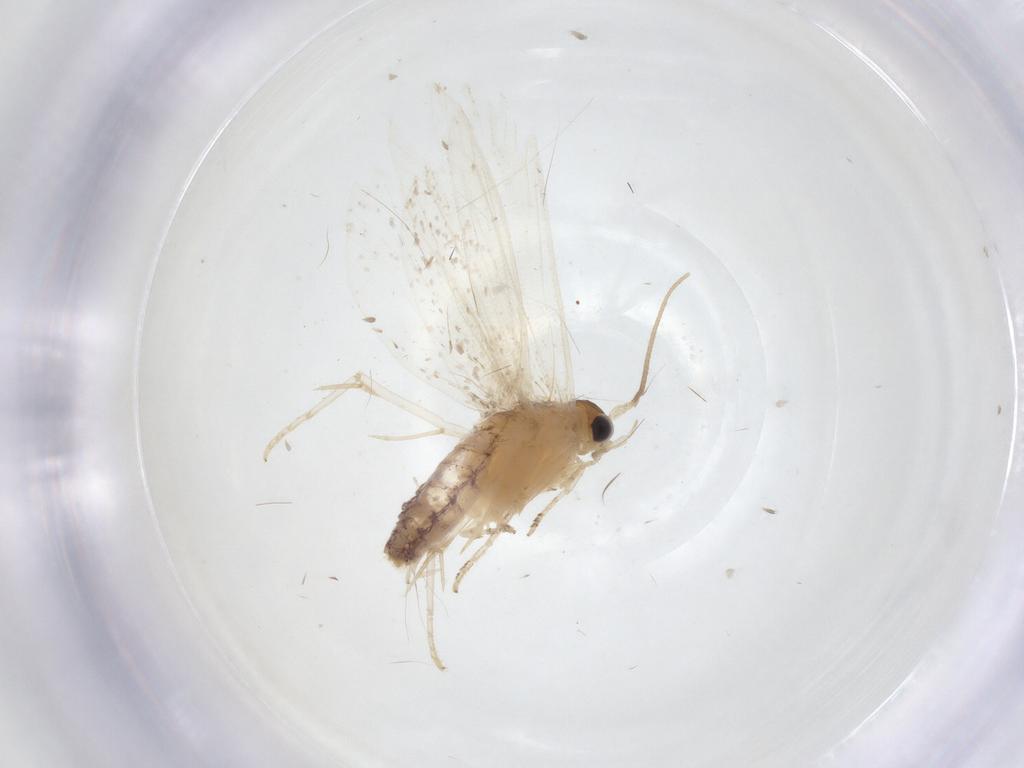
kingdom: Animalia
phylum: Arthropoda
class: Insecta
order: Lepidoptera
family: Tineidae
